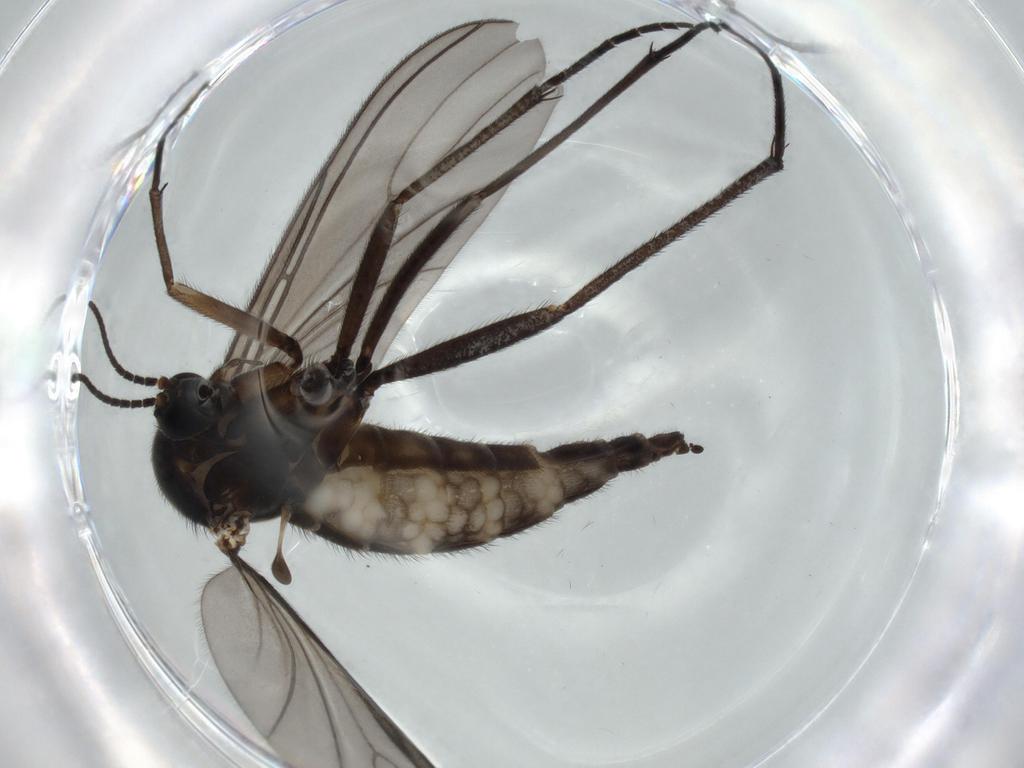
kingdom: Animalia
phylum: Arthropoda
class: Insecta
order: Diptera
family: Sciaridae
